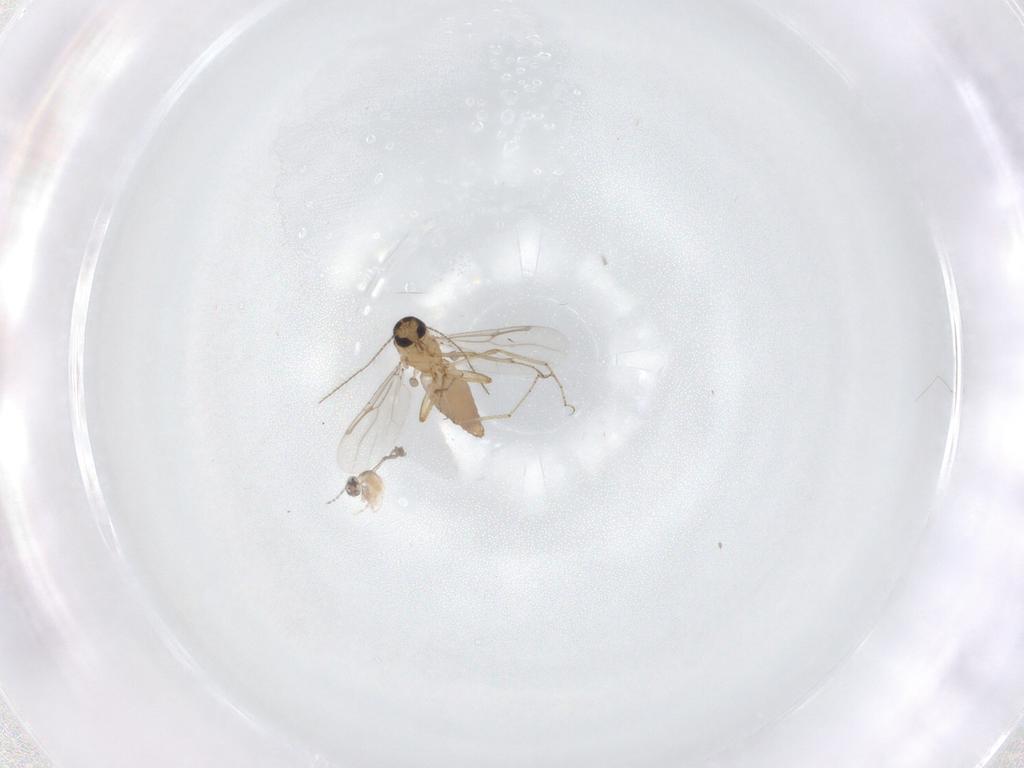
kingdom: Animalia
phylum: Arthropoda
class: Insecta
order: Diptera
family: Ceratopogonidae
